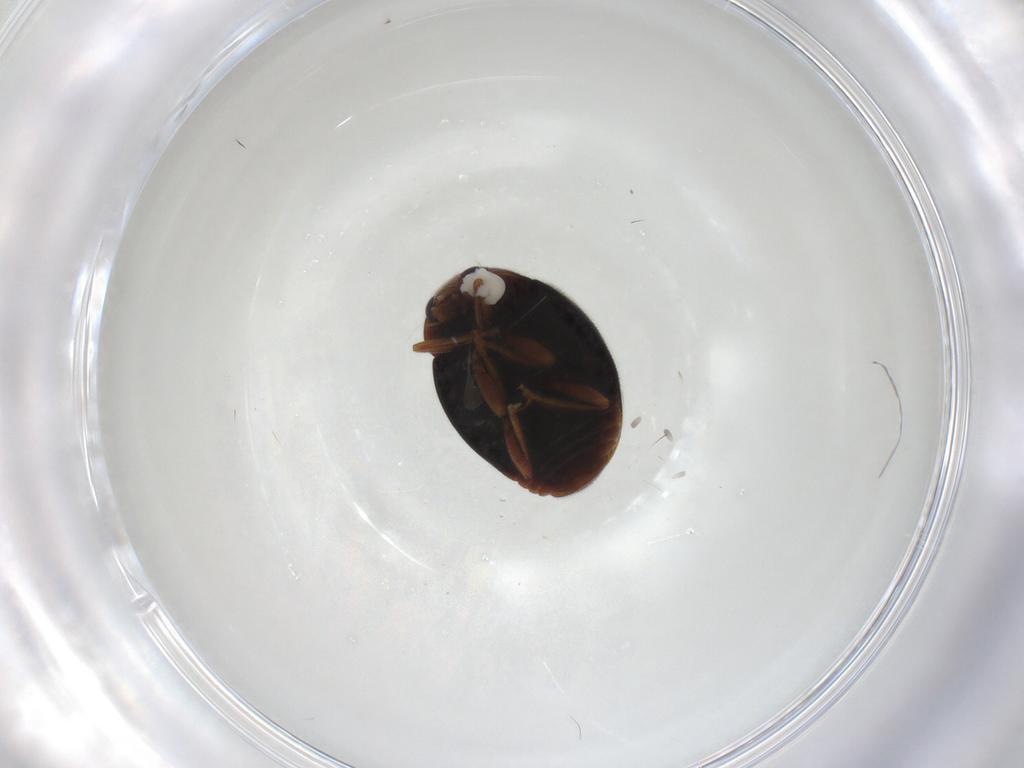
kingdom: Animalia
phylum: Arthropoda
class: Insecta
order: Coleoptera
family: Coccinellidae
